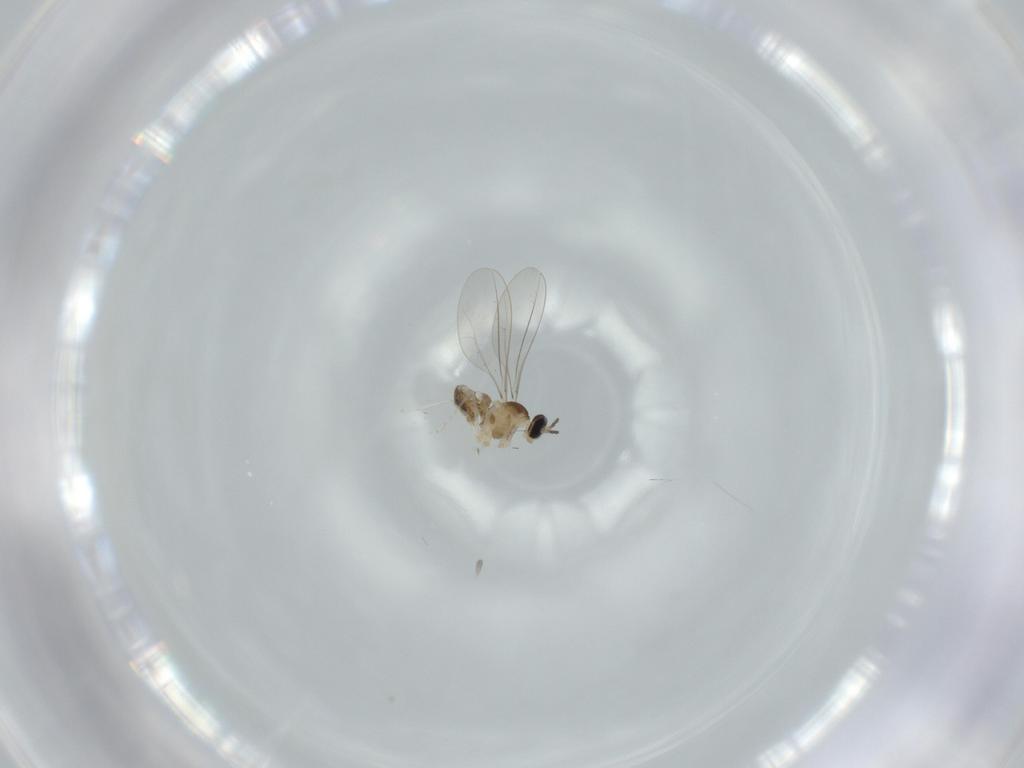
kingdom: Animalia
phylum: Arthropoda
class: Insecta
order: Diptera
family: Cecidomyiidae
